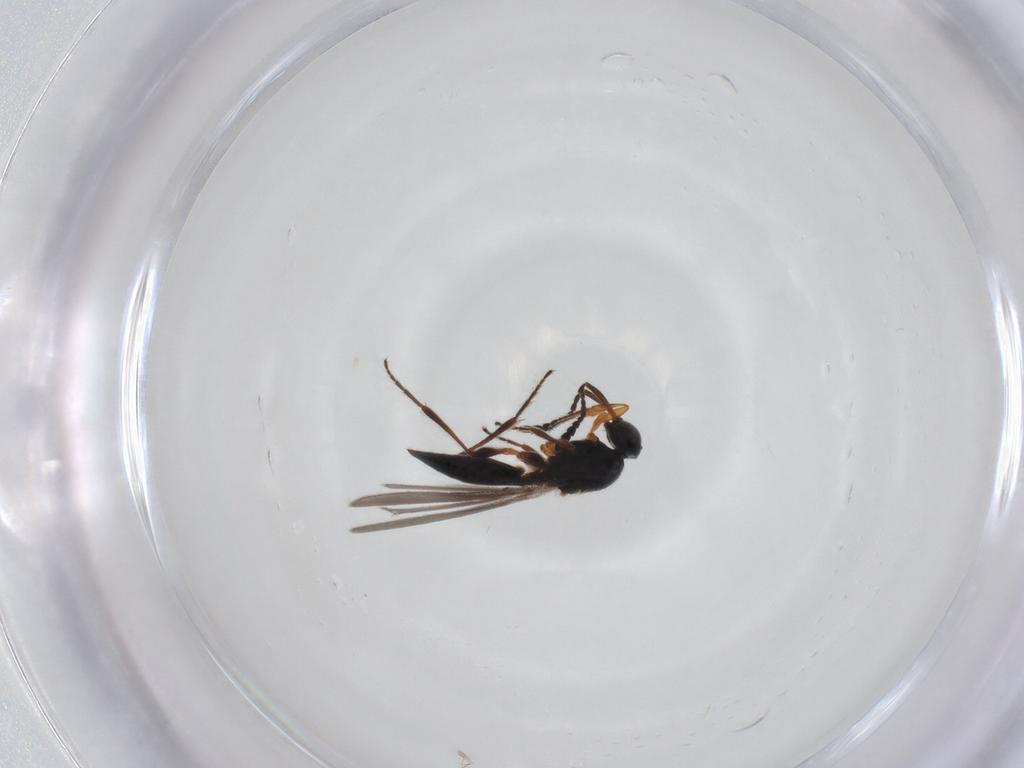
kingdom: Animalia
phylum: Arthropoda
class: Insecta
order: Hymenoptera
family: Platygastridae
